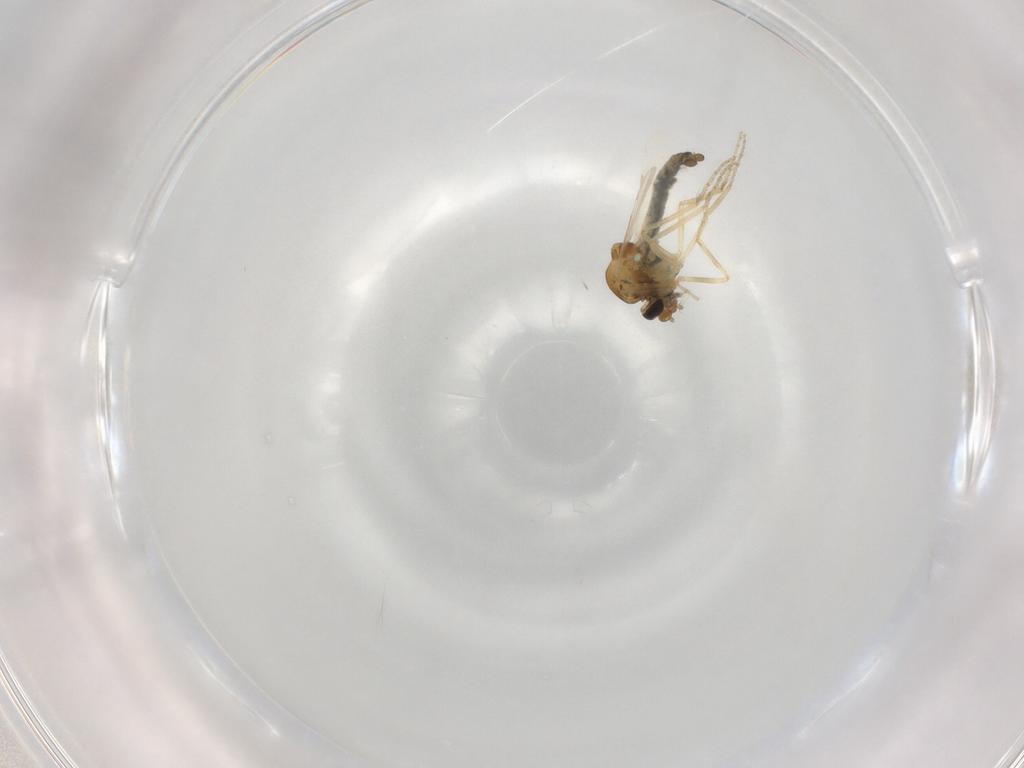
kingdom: Animalia
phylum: Arthropoda
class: Insecta
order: Diptera
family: Ceratopogonidae
